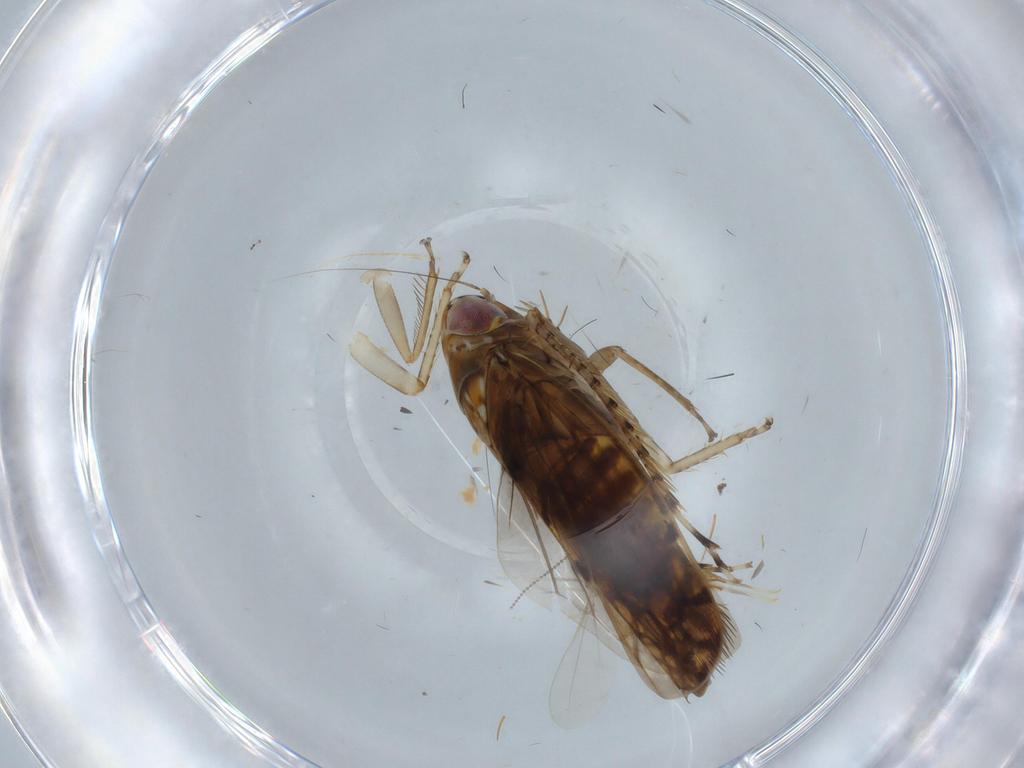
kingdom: Animalia
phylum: Arthropoda
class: Insecta
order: Hemiptera
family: Cicadellidae
